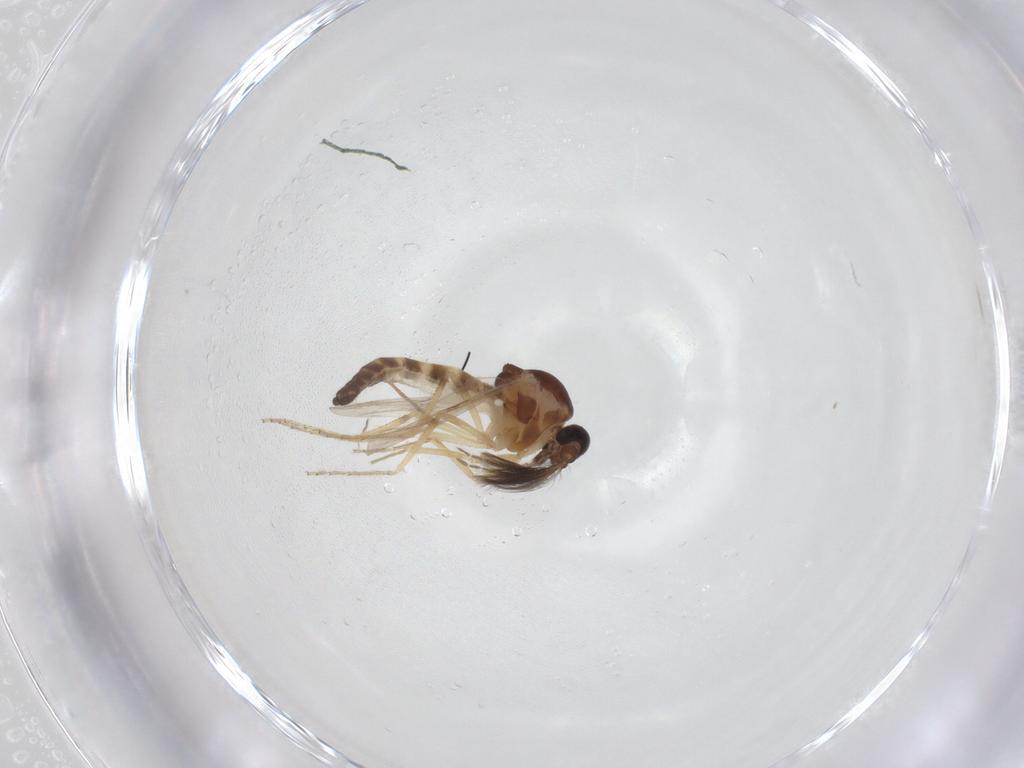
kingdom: Animalia
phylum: Arthropoda
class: Insecta
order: Diptera
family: Ceratopogonidae
